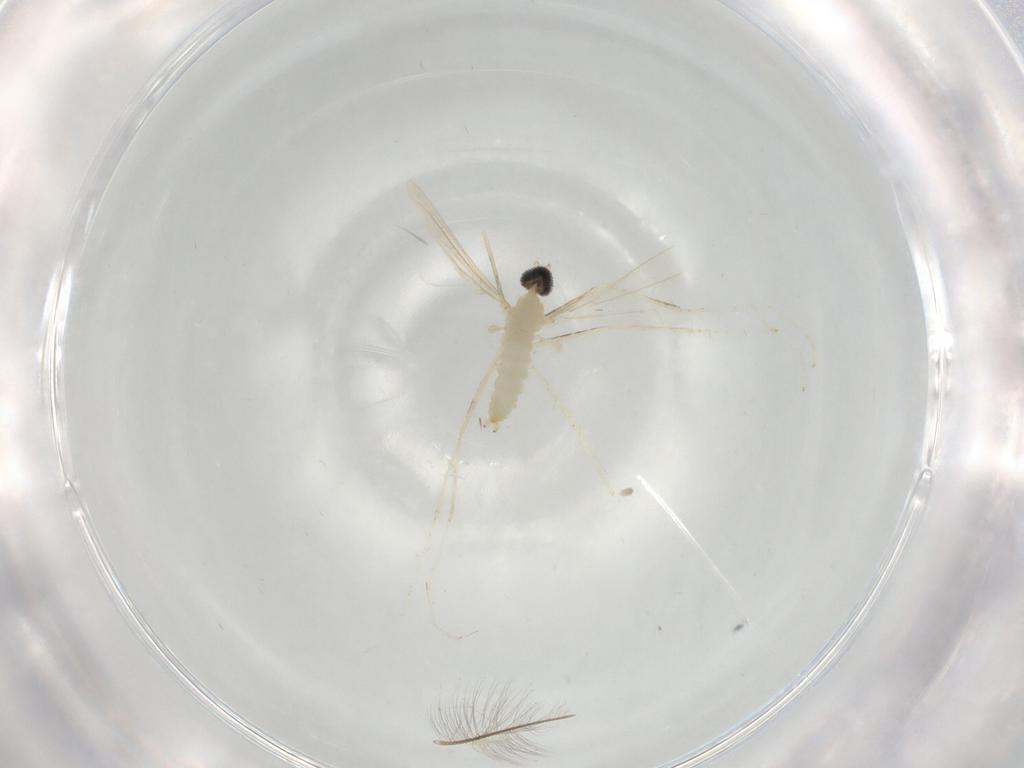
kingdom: Animalia
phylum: Arthropoda
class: Insecta
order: Diptera
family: Chironomidae
